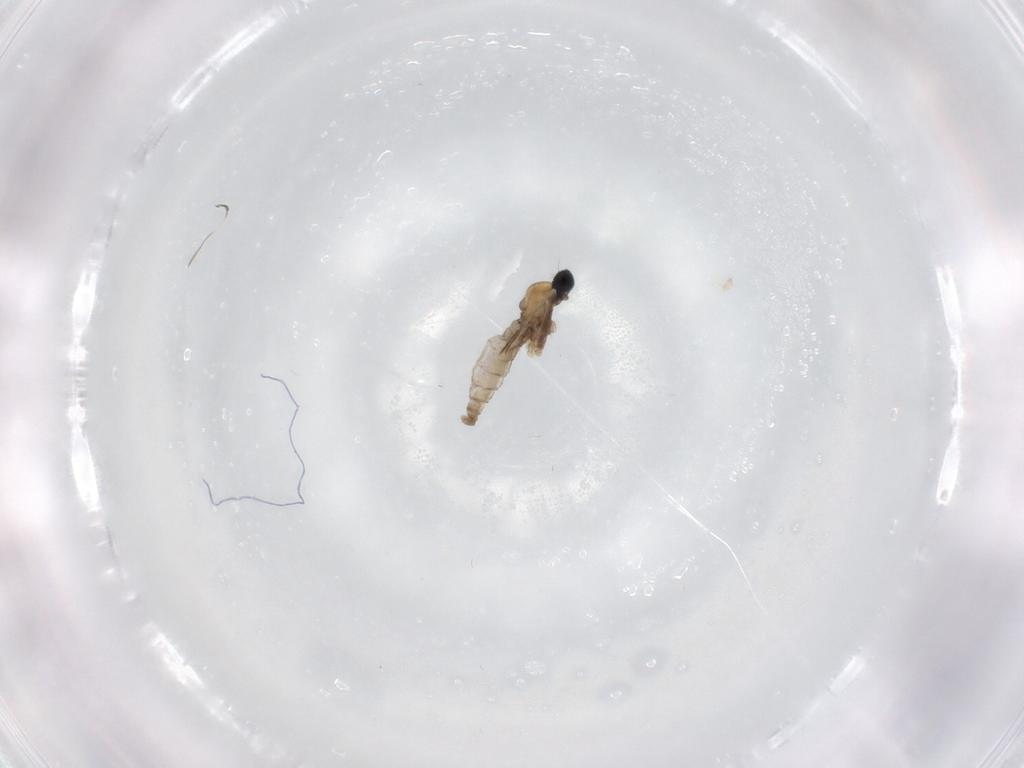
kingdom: Animalia
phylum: Arthropoda
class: Insecta
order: Diptera
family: Cecidomyiidae
